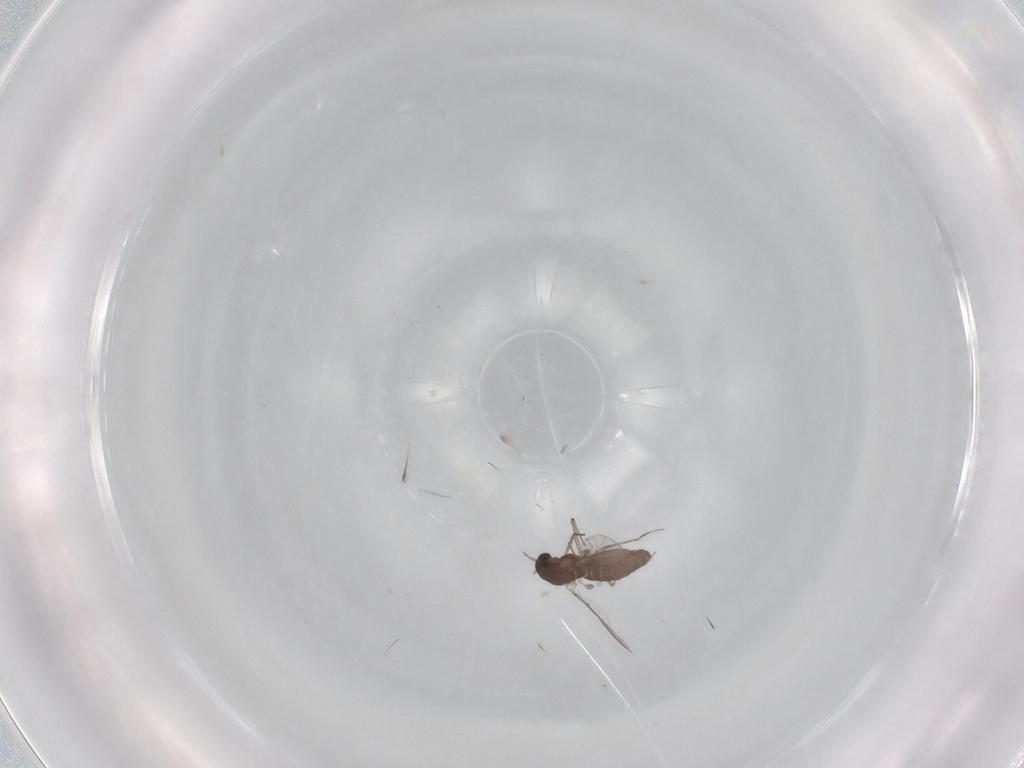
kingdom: Animalia
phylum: Arthropoda
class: Insecta
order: Diptera
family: Chironomidae
